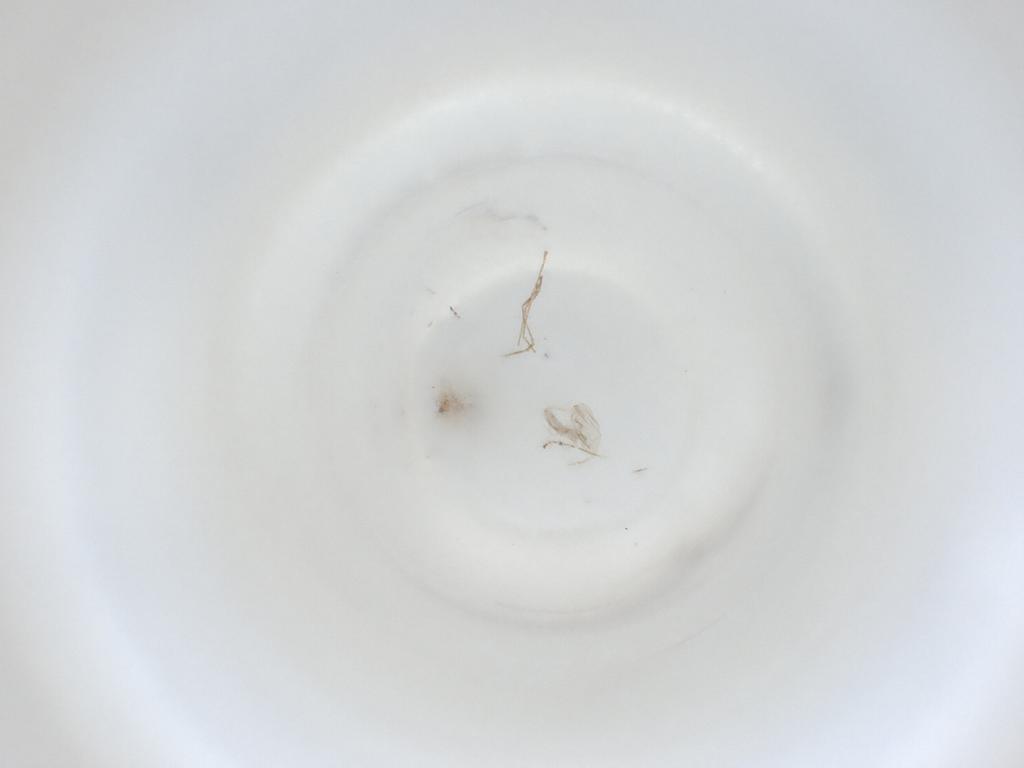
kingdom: Animalia
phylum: Arthropoda
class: Insecta
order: Diptera
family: Cecidomyiidae
